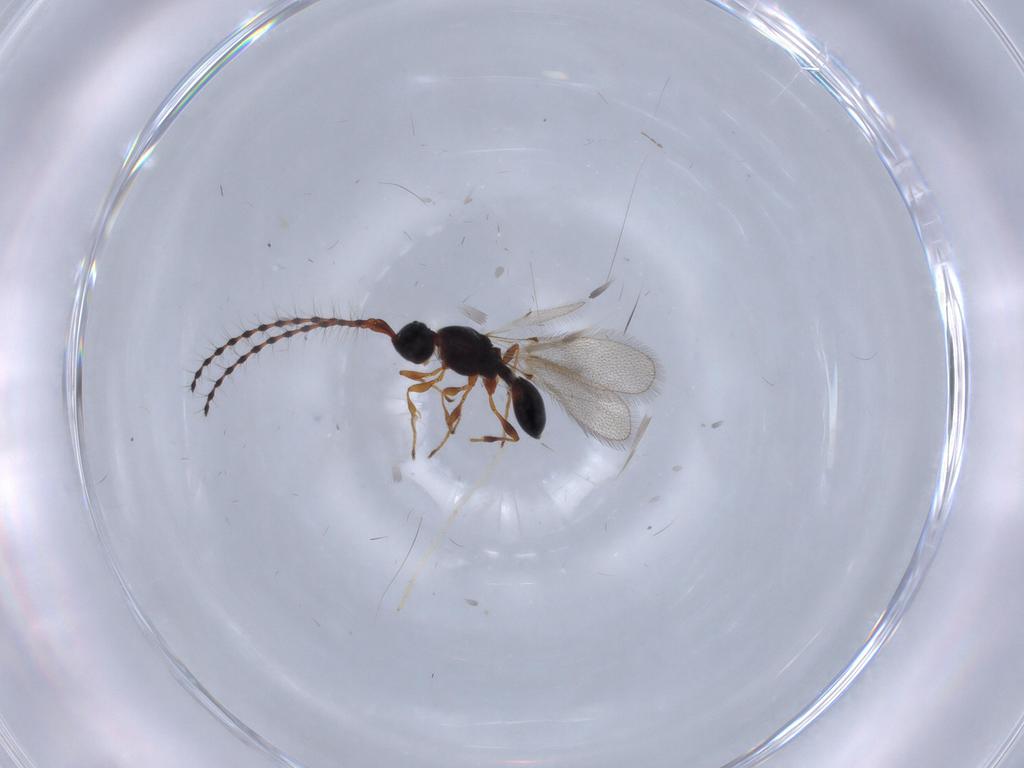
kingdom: Animalia
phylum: Arthropoda
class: Insecta
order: Hymenoptera
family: Diapriidae
